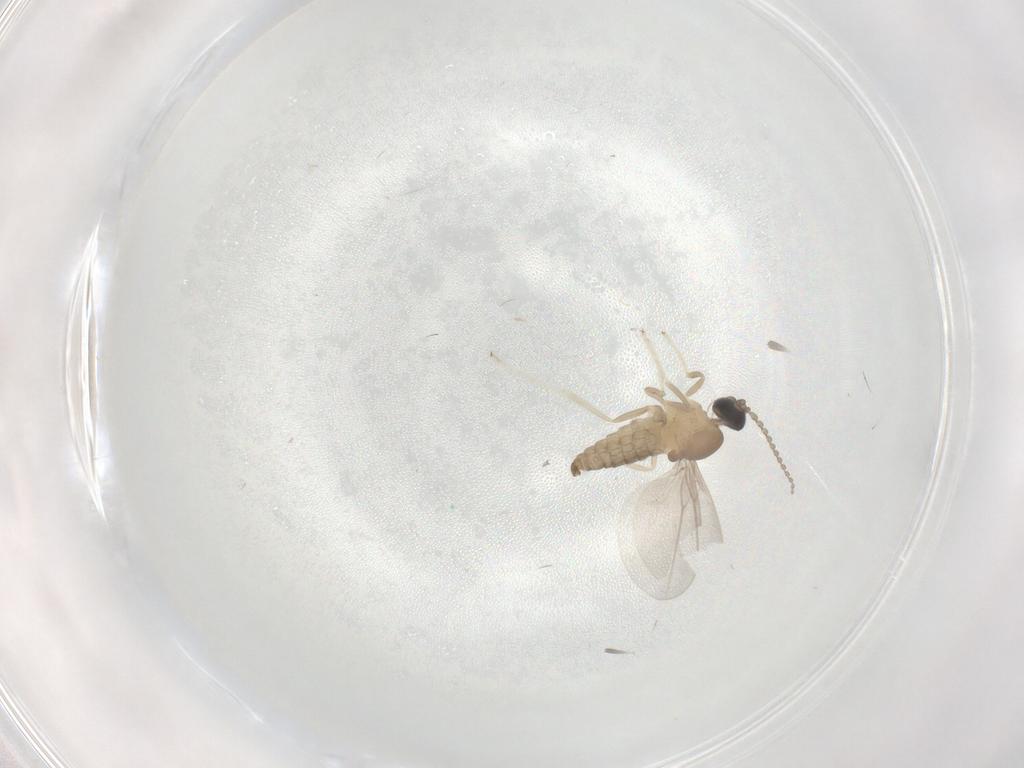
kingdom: Animalia
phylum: Arthropoda
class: Insecta
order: Diptera
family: Cecidomyiidae
